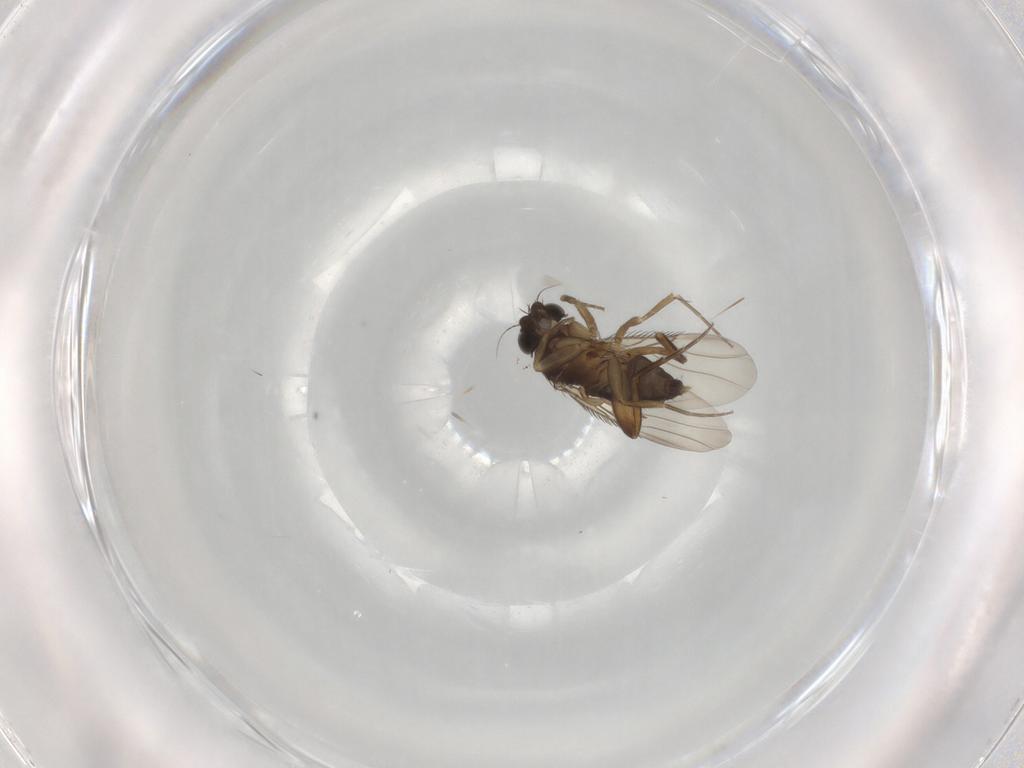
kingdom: Animalia
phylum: Arthropoda
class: Insecta
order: Diptera
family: Phoridae
